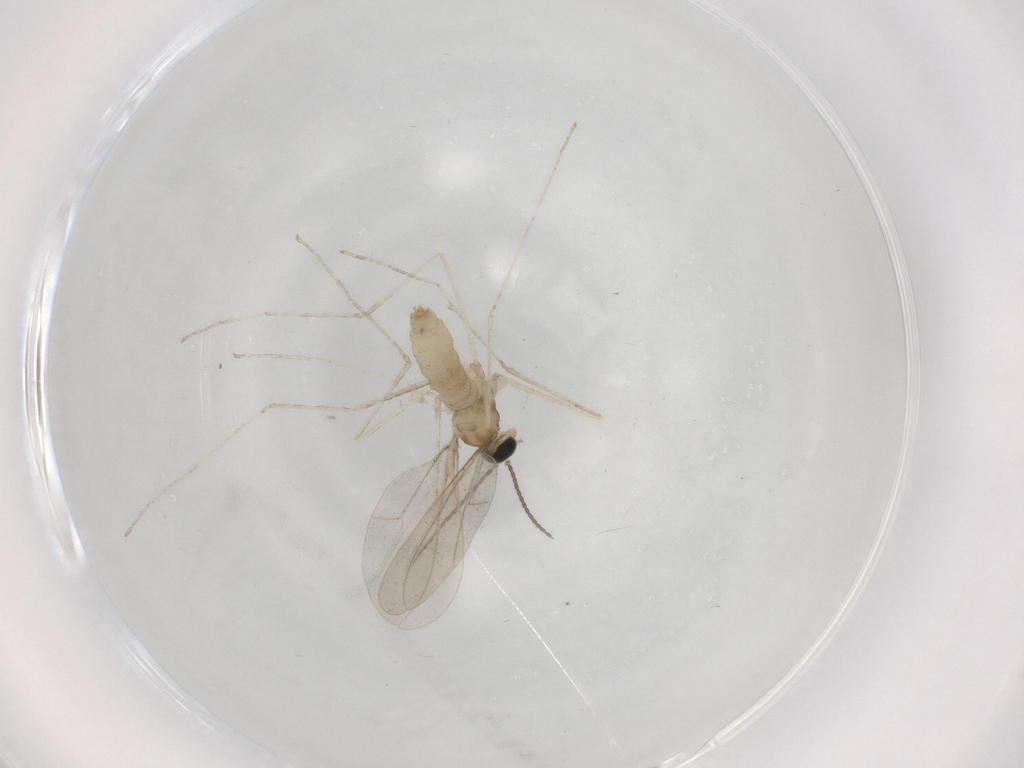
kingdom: Animalia
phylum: Arthropoda
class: Insecta
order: Diptera
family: Cecidomyiidae
